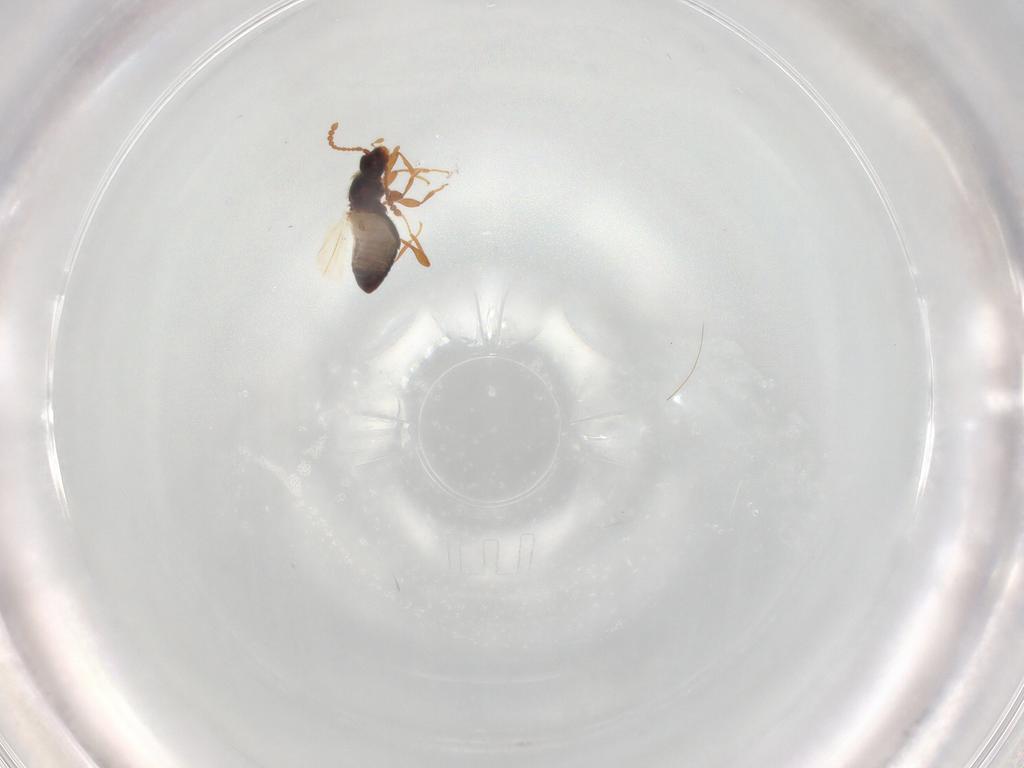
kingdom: Animalia
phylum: Arthropoda
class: Insecta
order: Coleoptera
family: Staphylinidae
